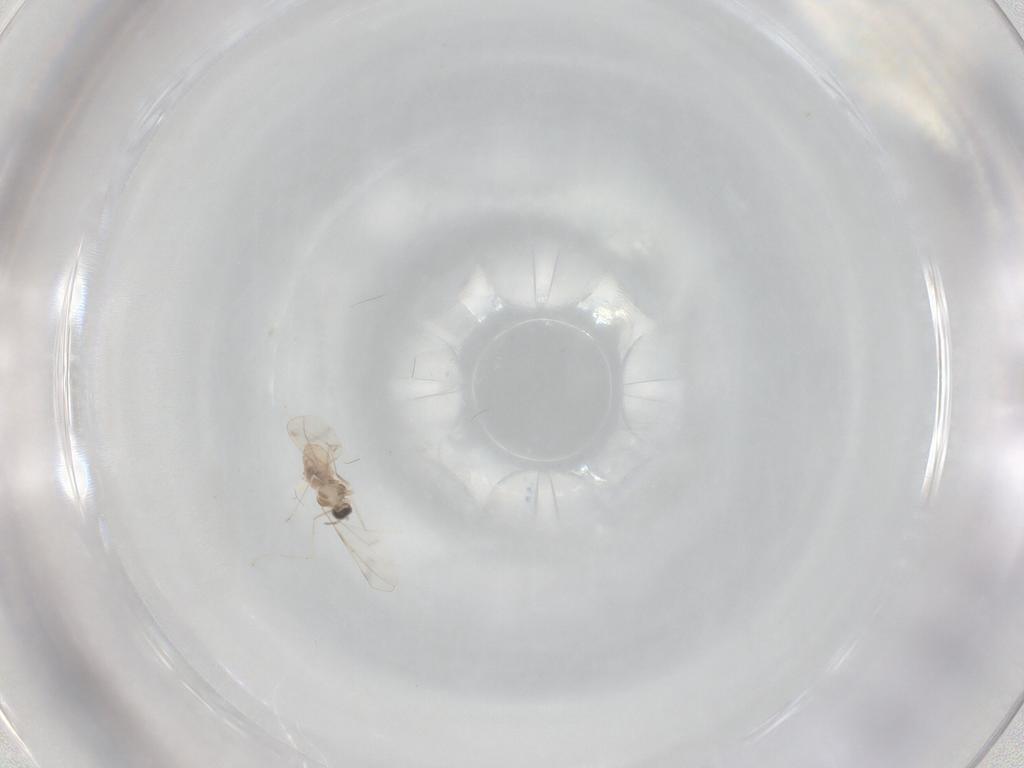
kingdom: Animalia
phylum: Arthropoda
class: Insecta
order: Diptera
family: Cecidomyiidae
